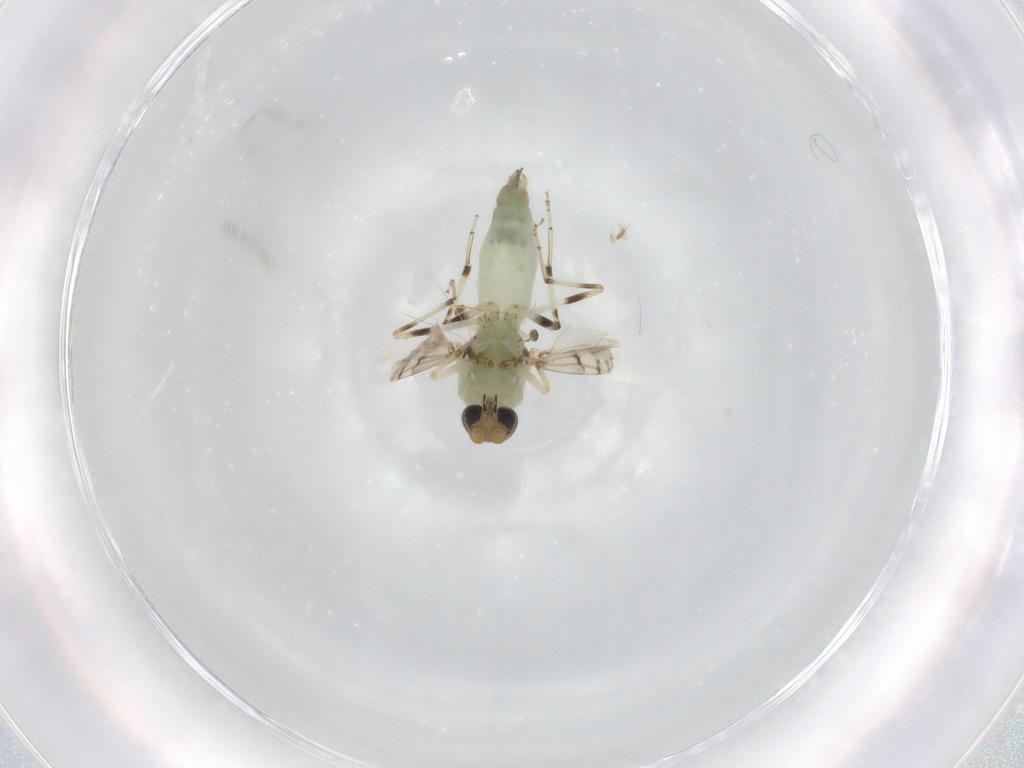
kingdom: Animalia
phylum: Arthropoda
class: Insecta
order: Diptera
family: Ceratopogonidae
